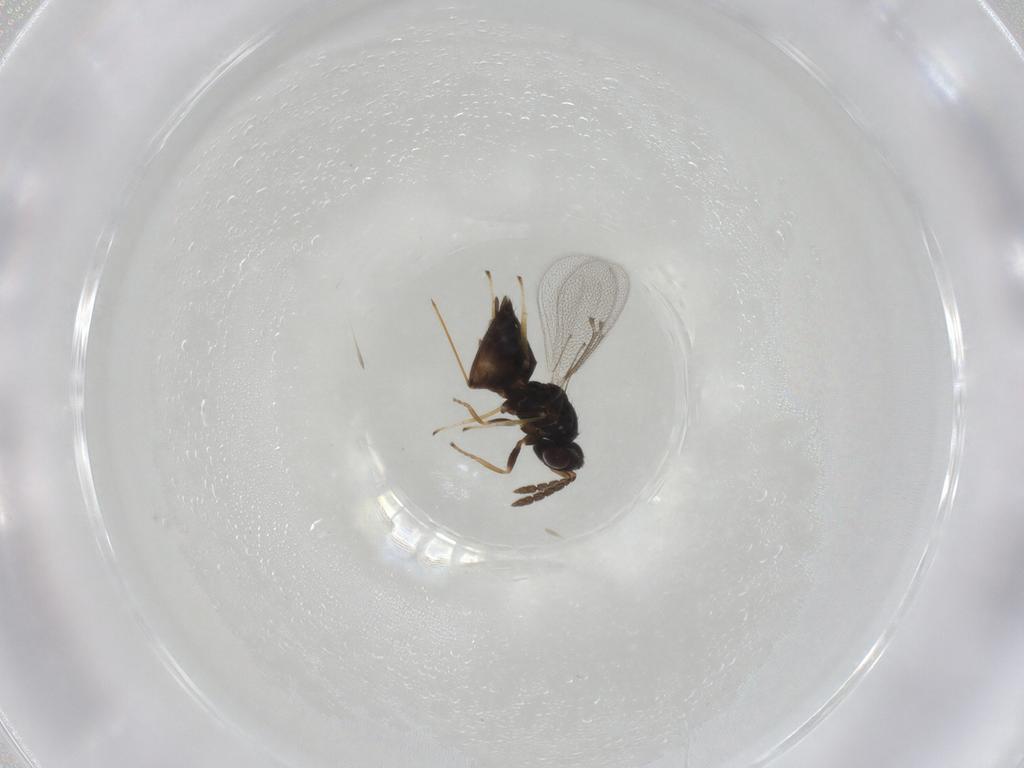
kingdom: Animalia
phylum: Arthropoda
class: Insecta
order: Hymenoptera
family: Eulophidae
